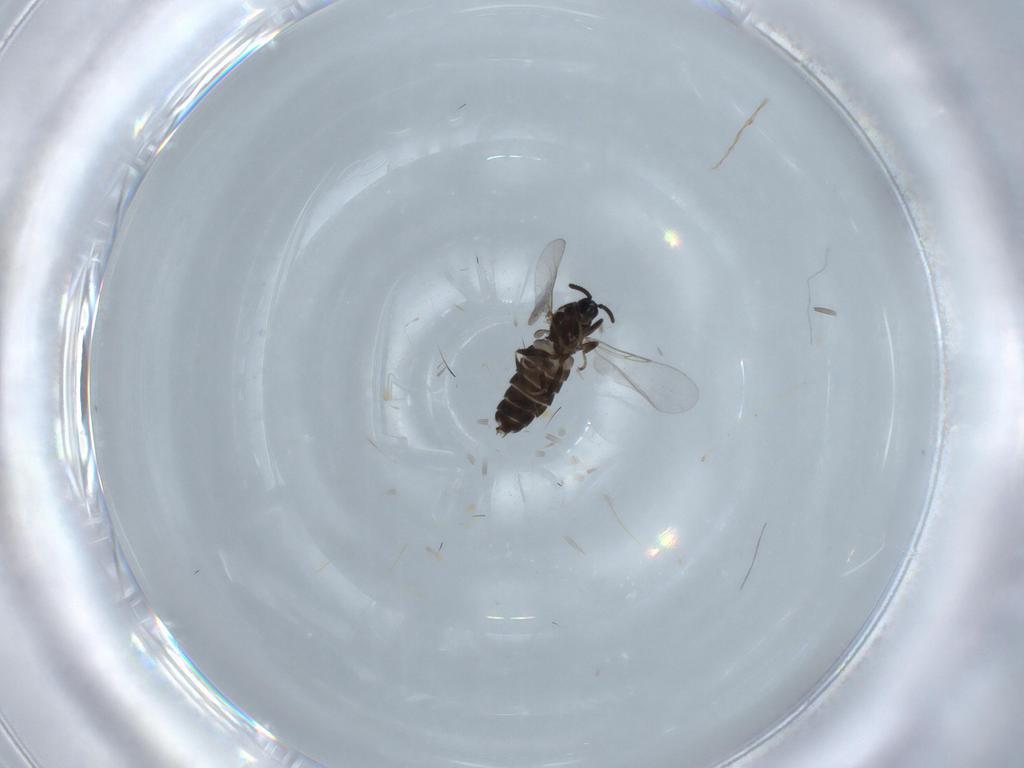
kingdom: Animalia
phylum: Arthropoda
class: Insecta
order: Diptera
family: Scatopsidae
